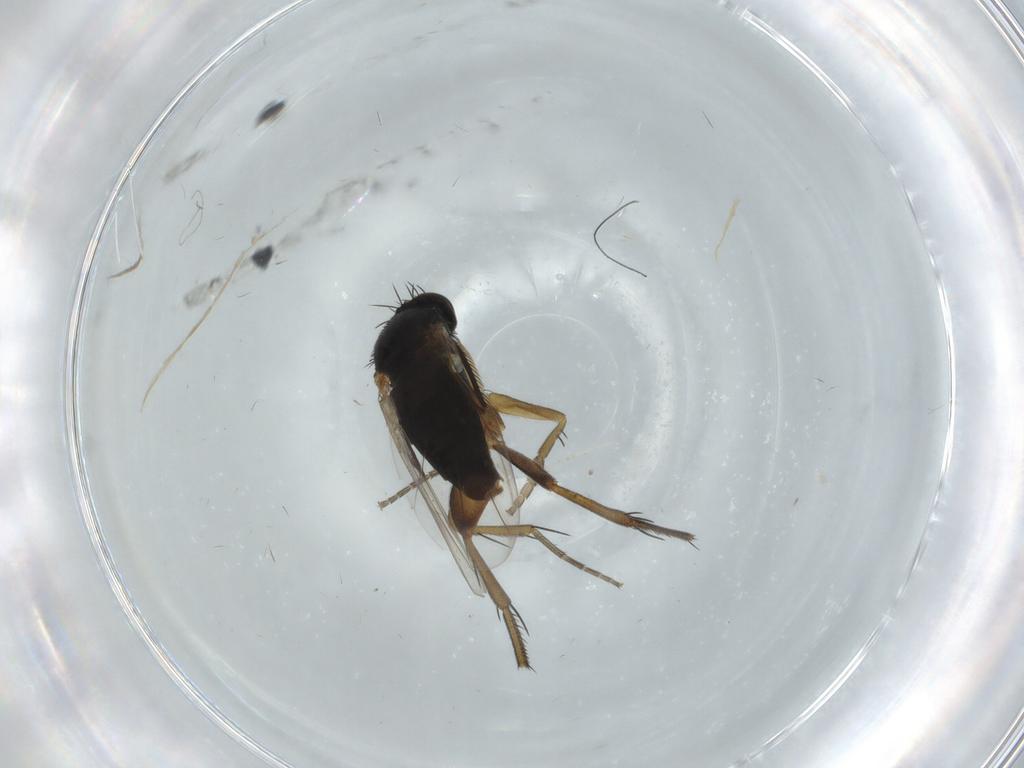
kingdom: Animalia
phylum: Arthropoda
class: Insecta
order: Diptera
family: Phoridae
